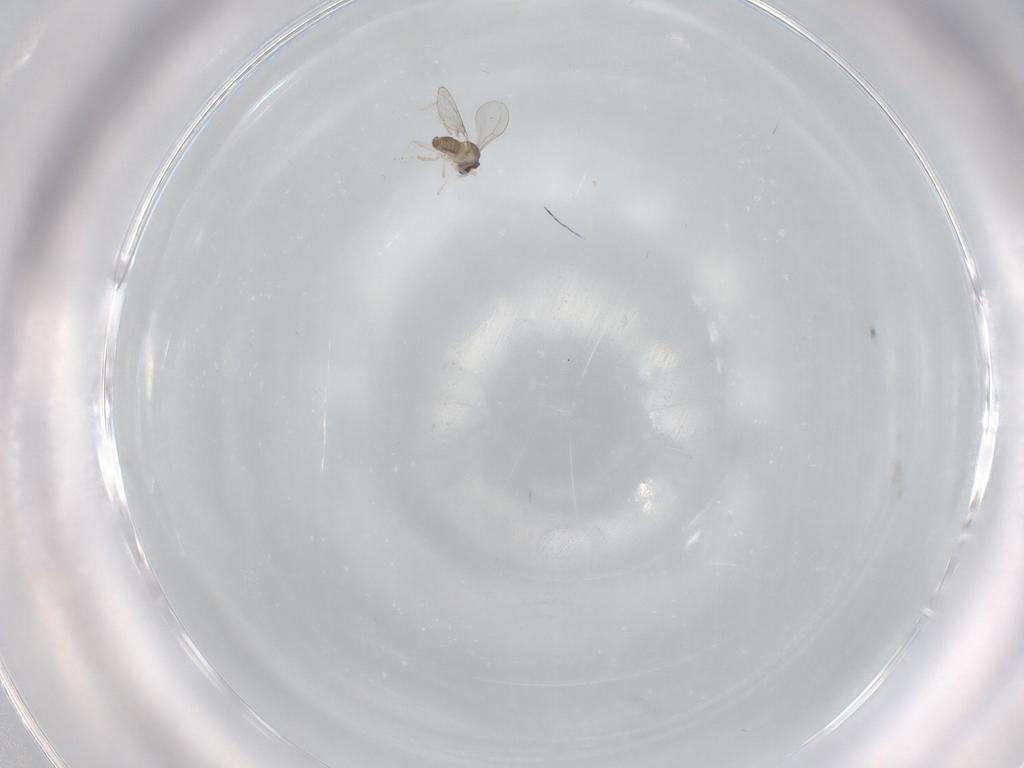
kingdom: Animalia
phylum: Arthropoda
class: Insecta
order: Diptera
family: Cecidomyiidae
